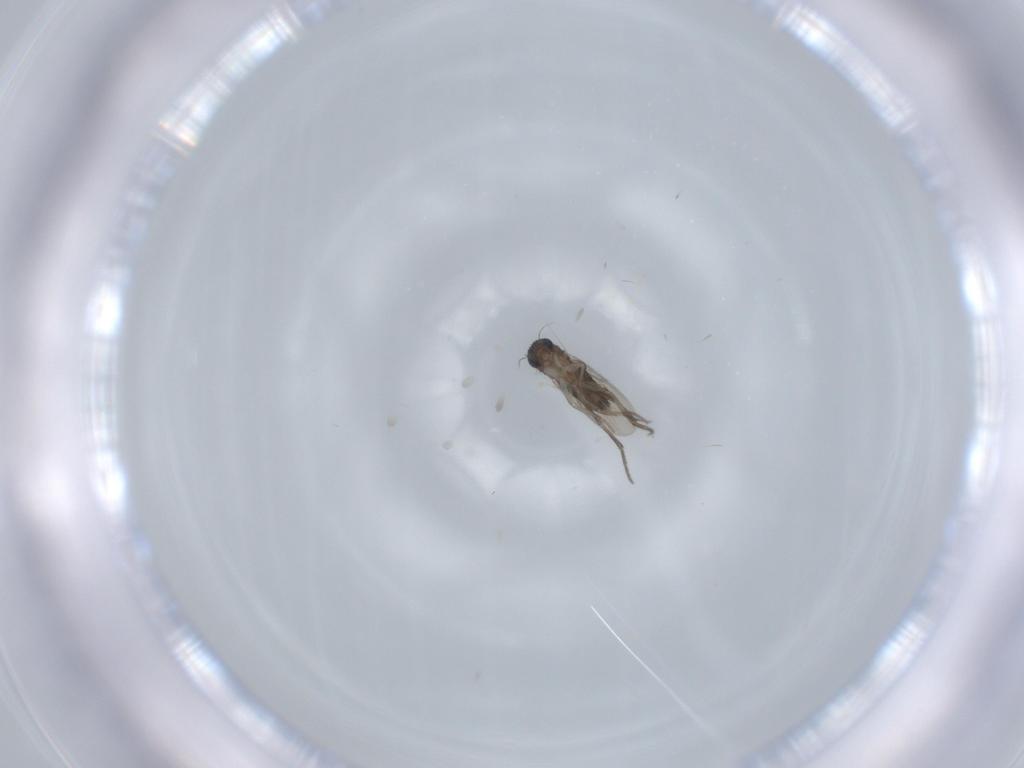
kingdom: Animalia
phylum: Arthropoda
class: Insecta
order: Diptera
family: Phoridae
